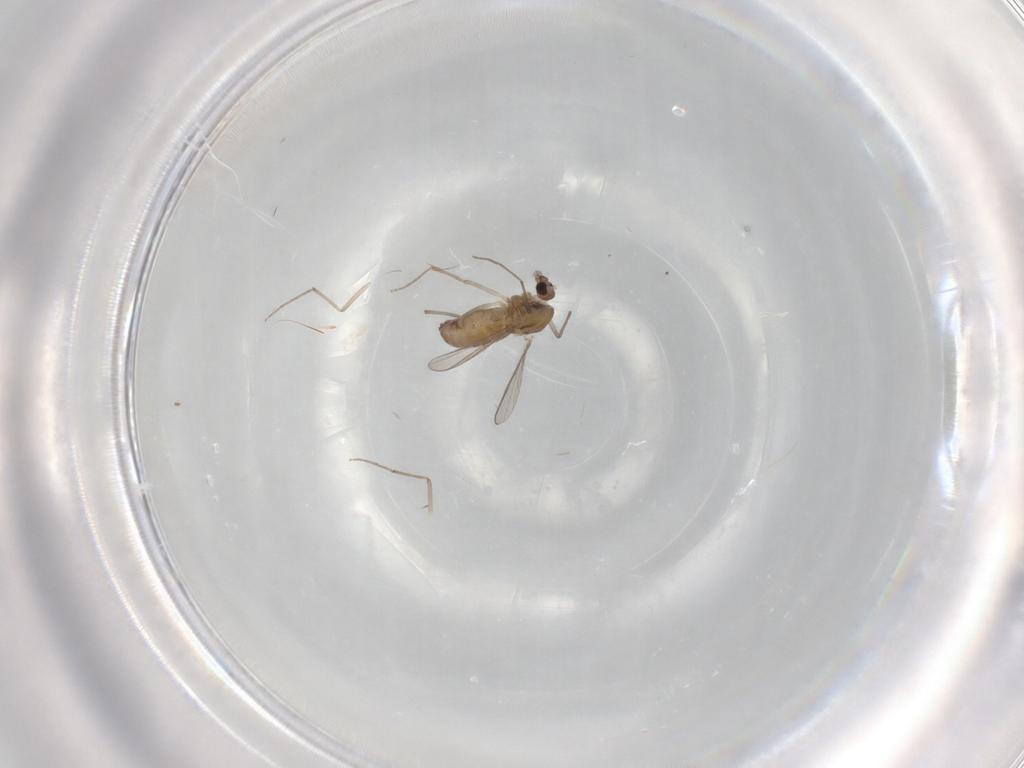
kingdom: Animalia
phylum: Arthropoda
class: Insecta
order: Diptera
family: Chironomidae
